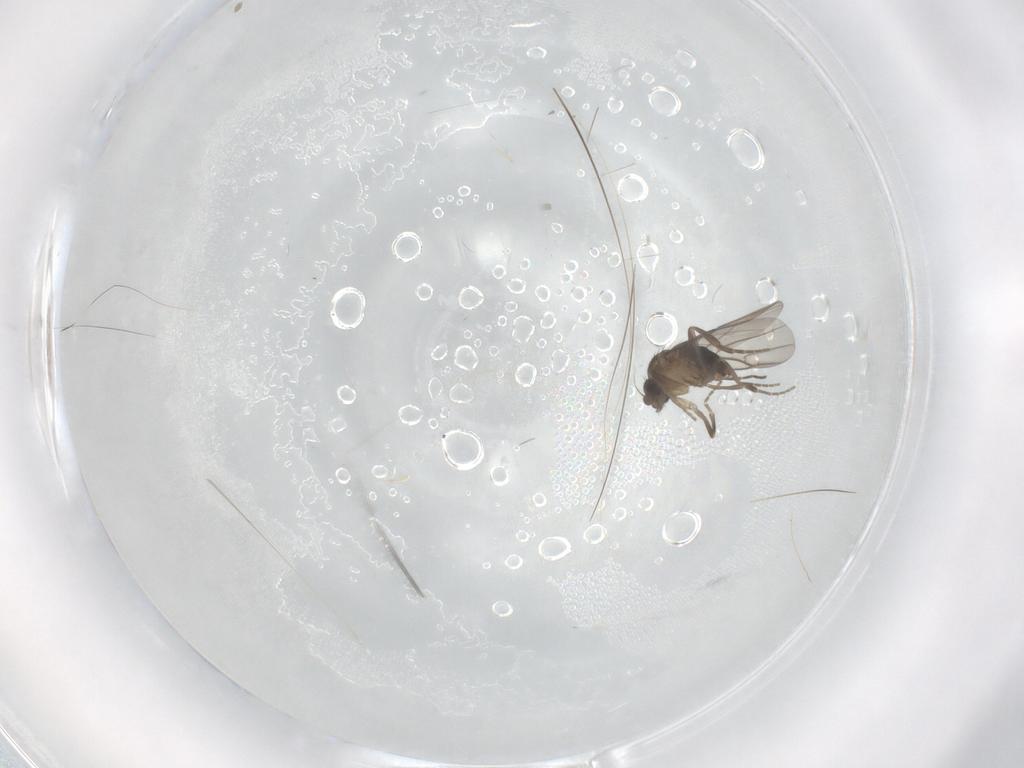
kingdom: Animalia
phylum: Arthropoda
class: Insecta
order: Diptera
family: Phoridae
